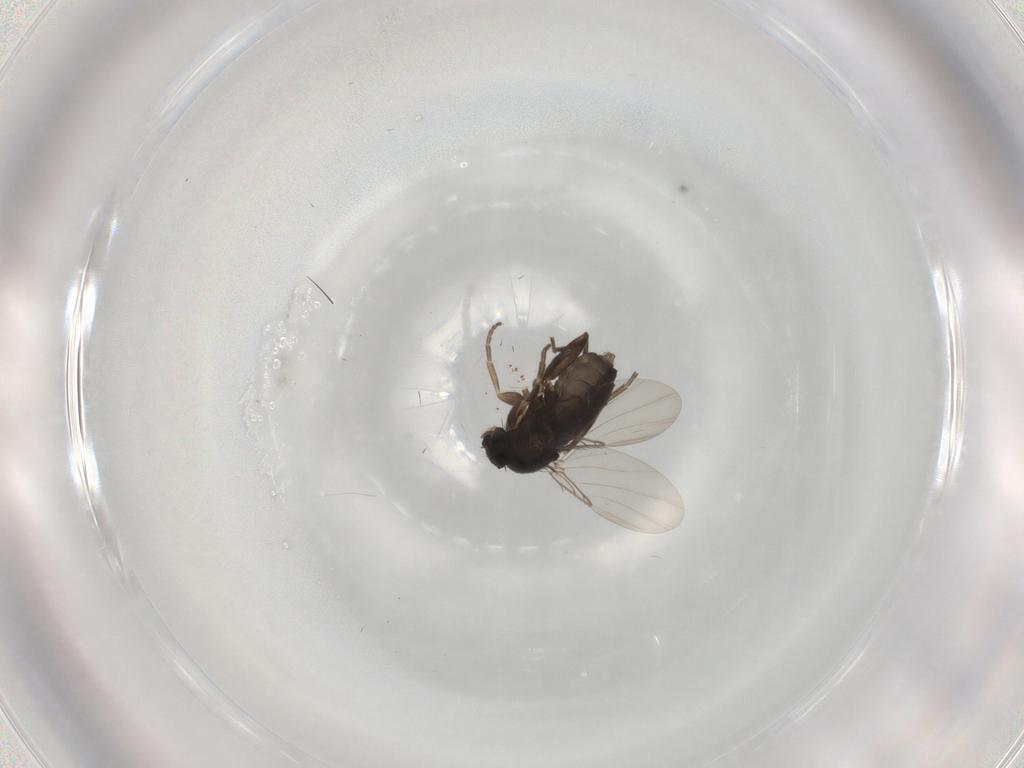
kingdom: Animalia
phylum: Arthropoda
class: Insecta
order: Diptera
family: Phoridae
